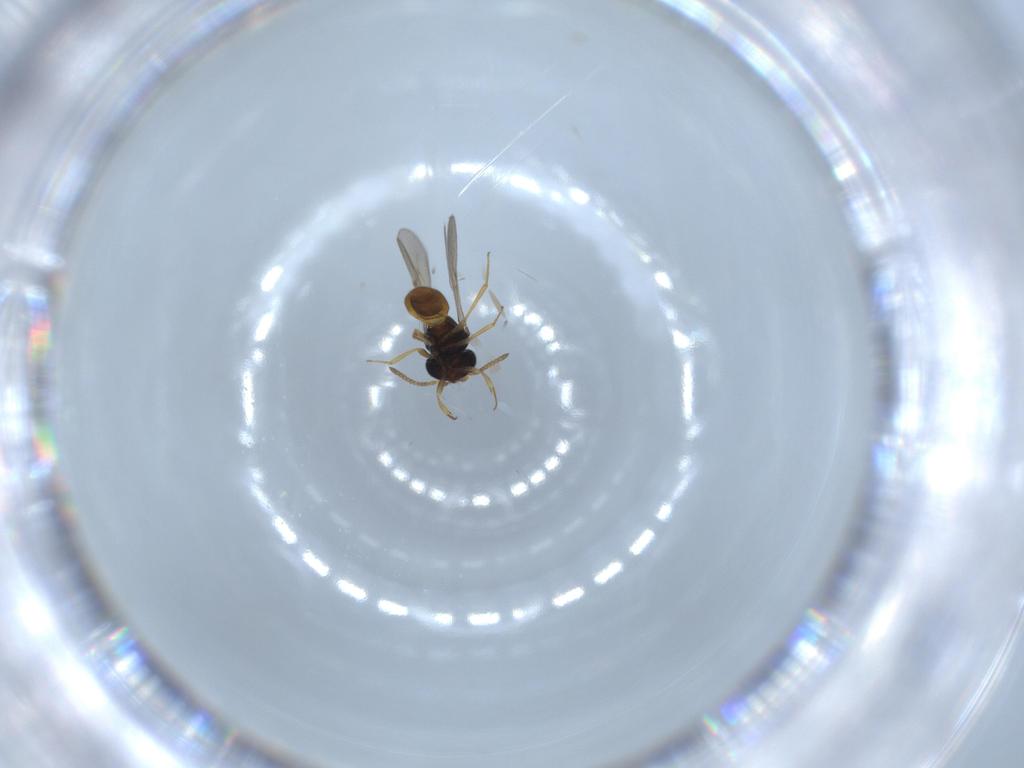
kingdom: Animalia
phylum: Arthropoda
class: Insecta
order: Hymenoptera
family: Scelionidae
